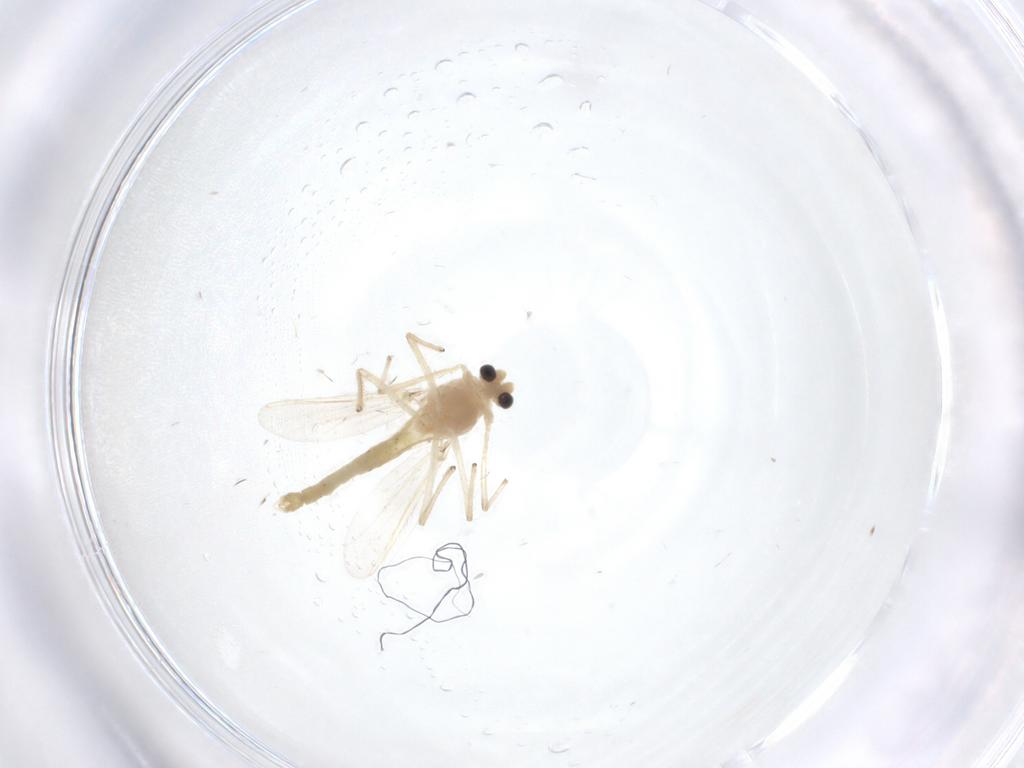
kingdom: Animalia
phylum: Arthropoda
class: Insecta
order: Diptera
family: Chironomidae
